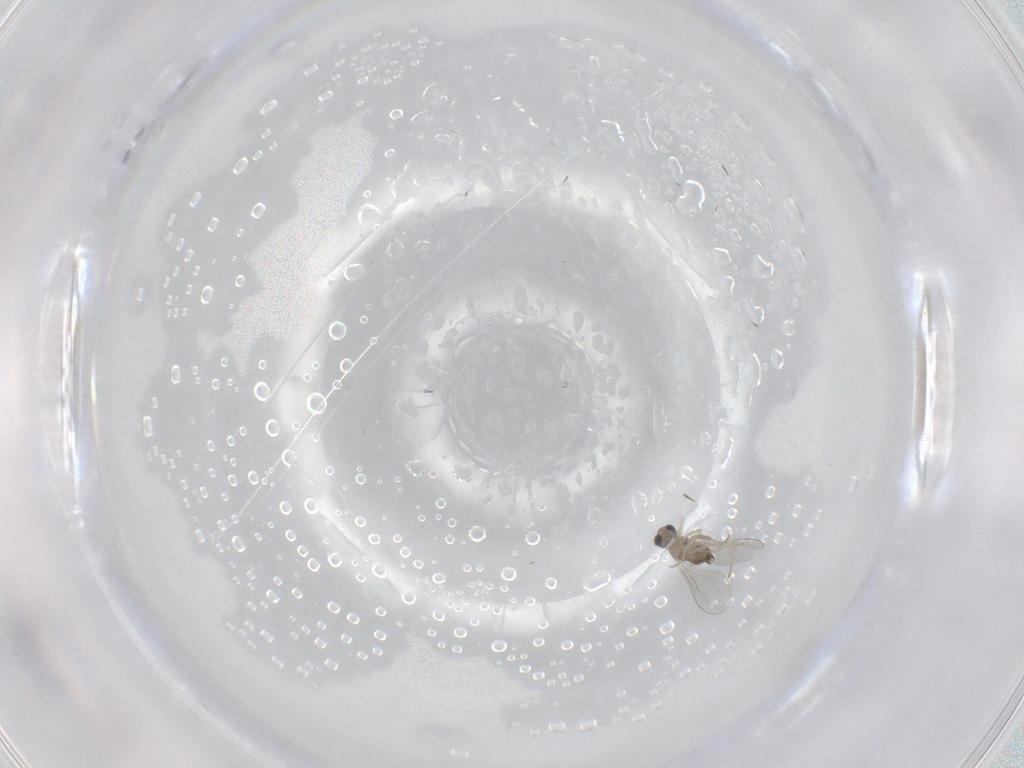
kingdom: Animalia
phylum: Arthropoda
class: Insecta
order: Diptera
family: Cecidomyiidae
